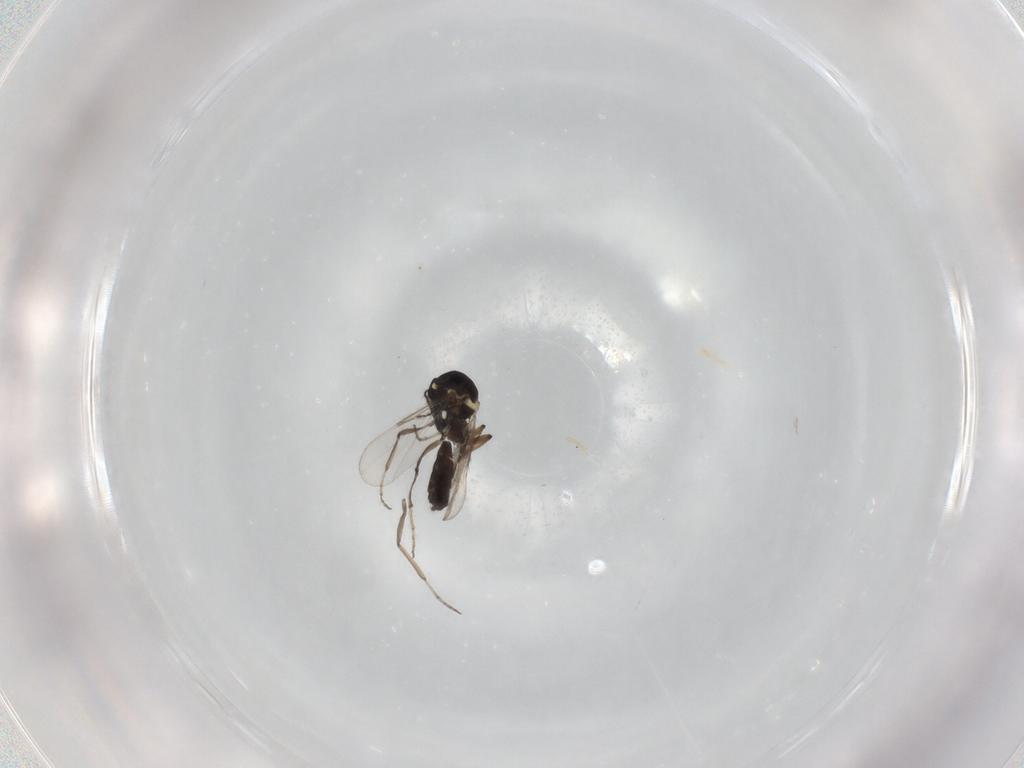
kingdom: Animalia
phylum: Arthropoda
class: Insecta
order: Diptera
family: Ceratopogonidae
